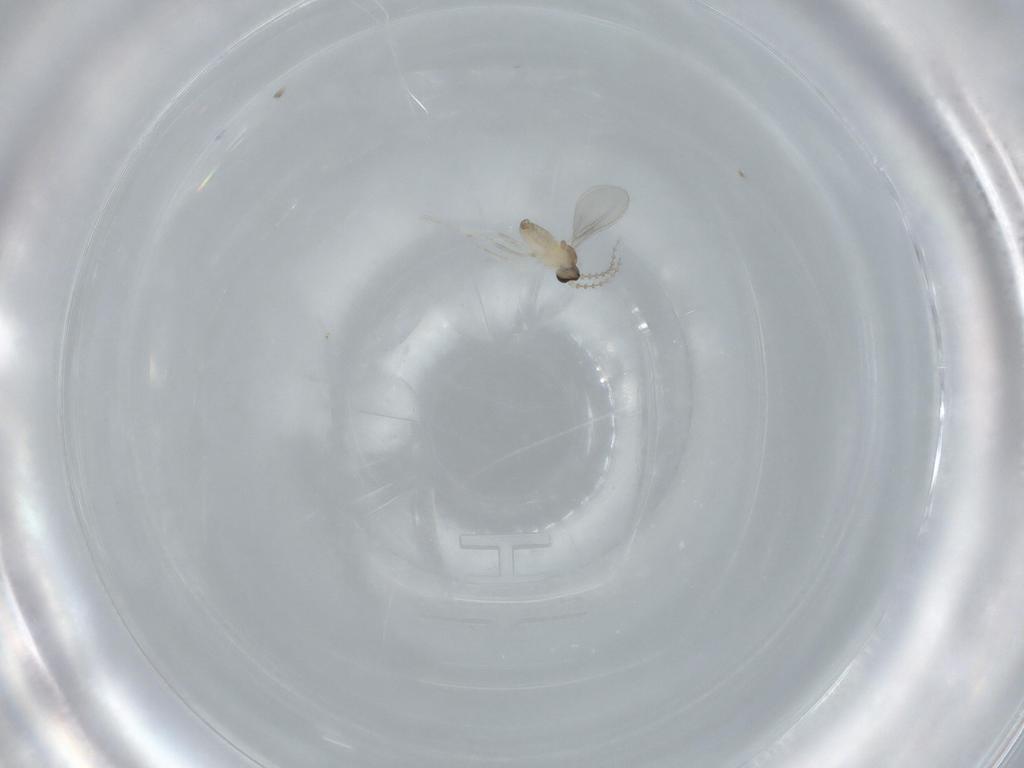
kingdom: Animalia
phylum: Arthropoda
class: Insecta
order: Diptera
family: Cecidomyiidae
